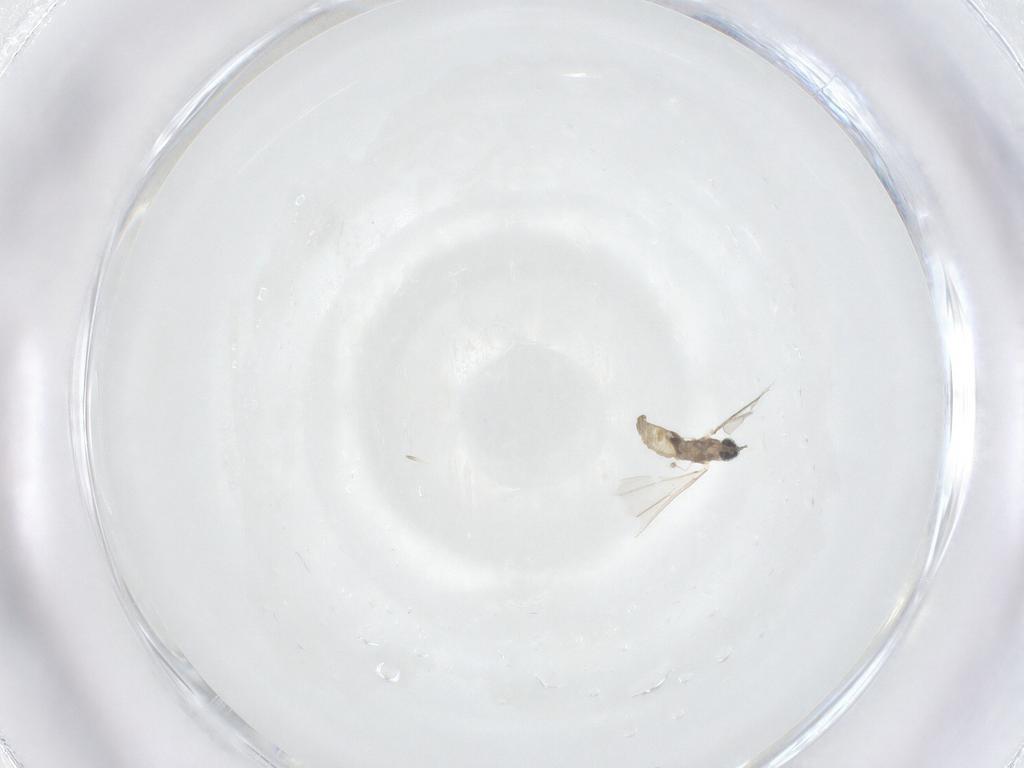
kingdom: Animalia
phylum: Arthropoda
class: Insecta
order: Diptera
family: Cecidomyiidae
